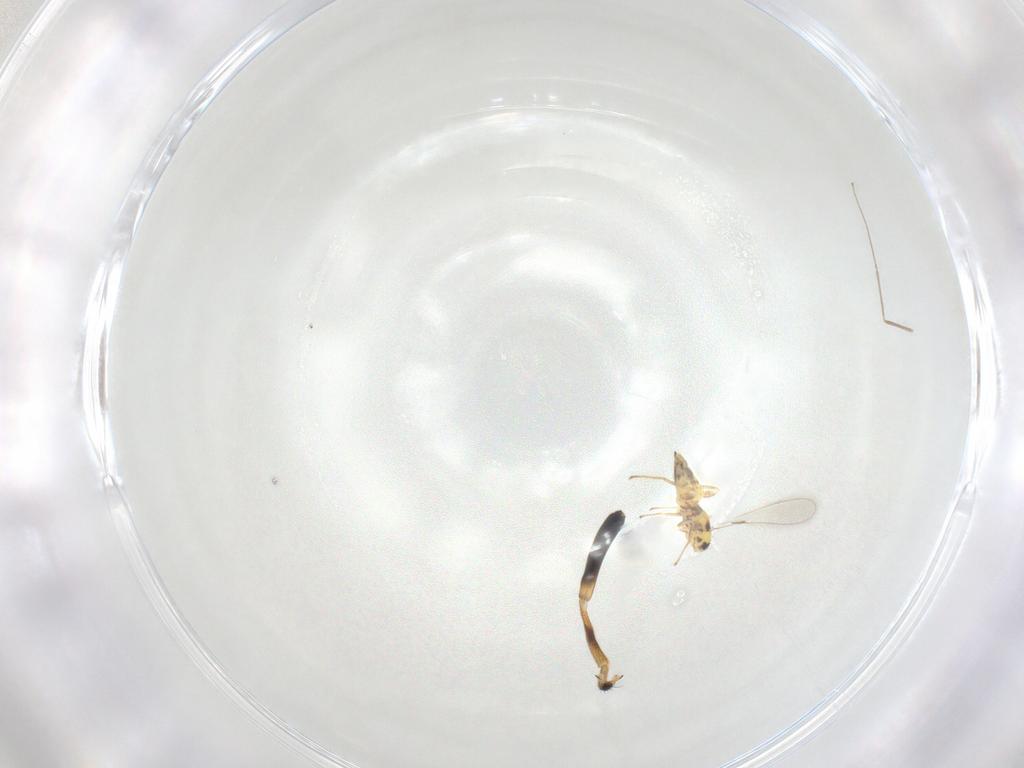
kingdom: Animalia
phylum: Arthropoda
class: Insecta
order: Hymenoptera
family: Mymaridae
